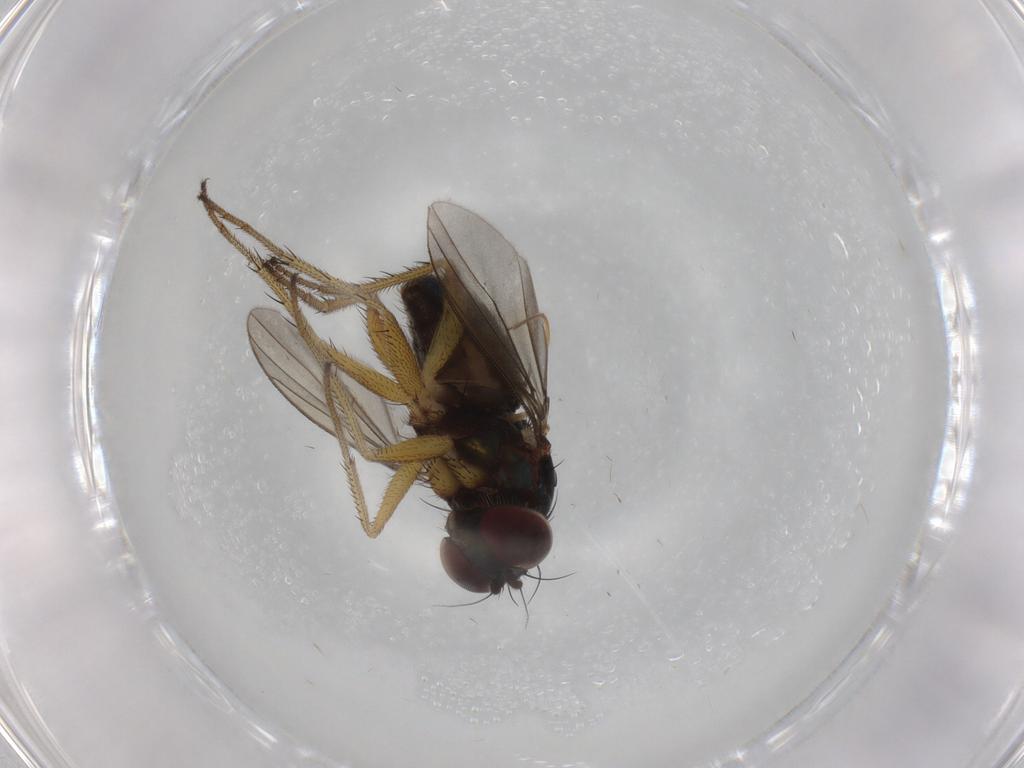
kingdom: Animalia
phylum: Arthropoda
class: Insecta
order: Diptera
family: Dolichopodidae
